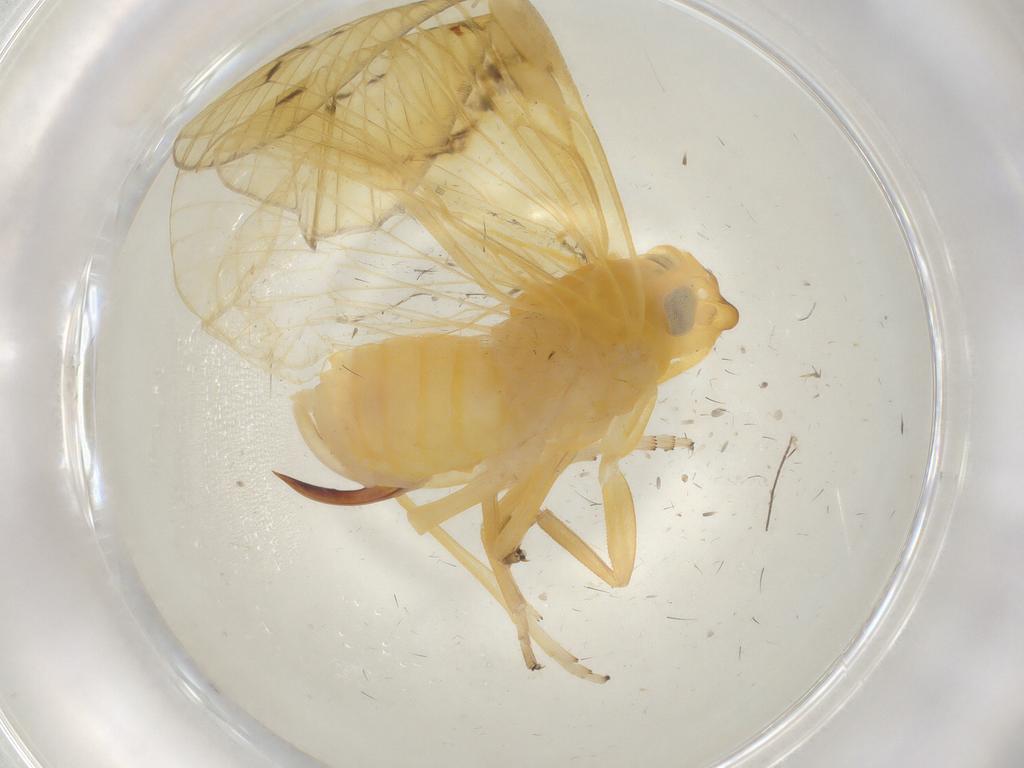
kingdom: Animalia
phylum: Arthropoda
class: Insecta
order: Hemiptera
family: Cixiidae
